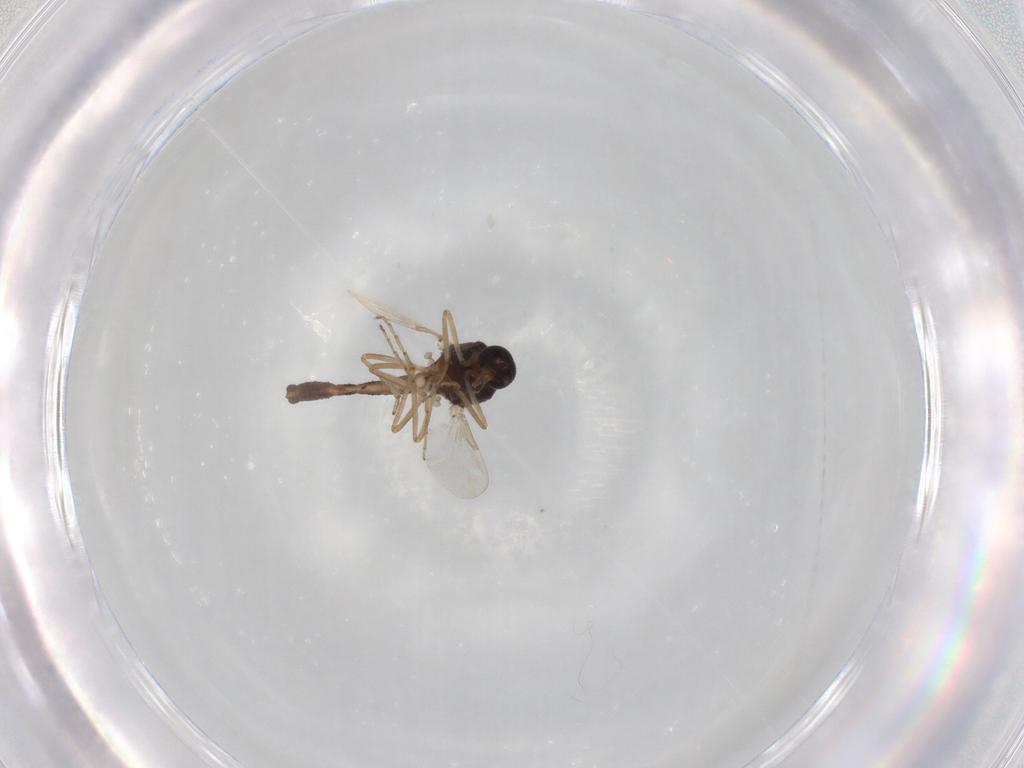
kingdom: Animalia
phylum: Arthropoda
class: Insecta
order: Diptera
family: Ceratopogonidae
